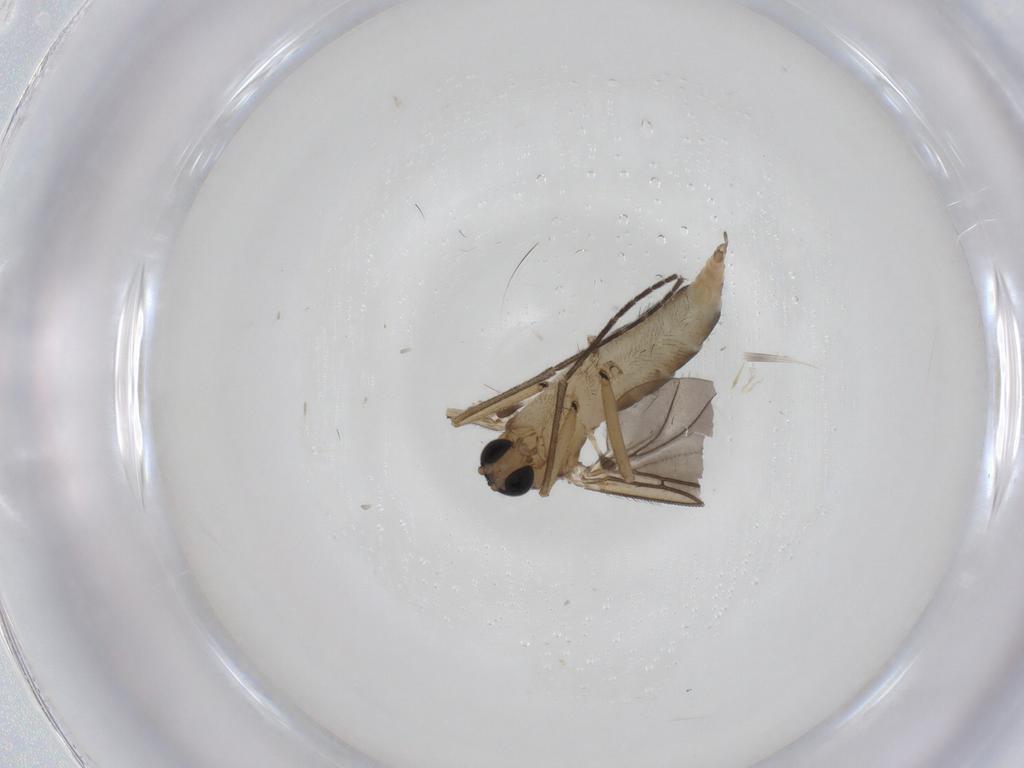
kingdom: Animalia
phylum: Arthropoda
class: Insecta
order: Diptera
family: Sciaridae
